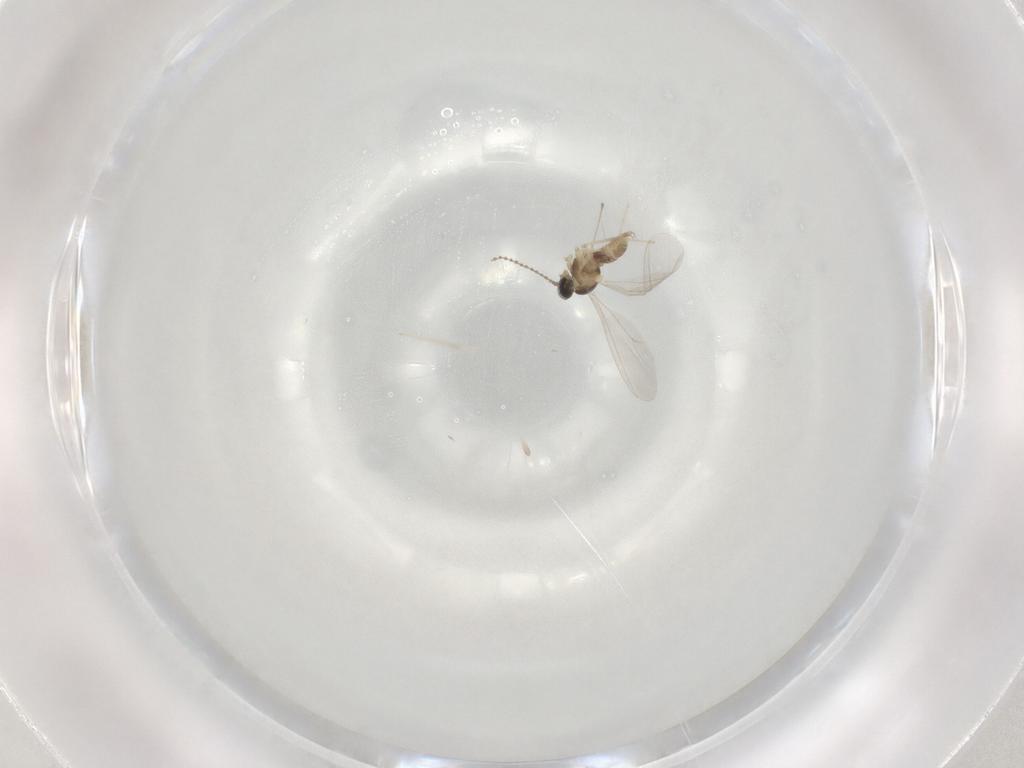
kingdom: Animalia
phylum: Arthropoda
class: Insecta
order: Diptera
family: Cecidomyiidae
